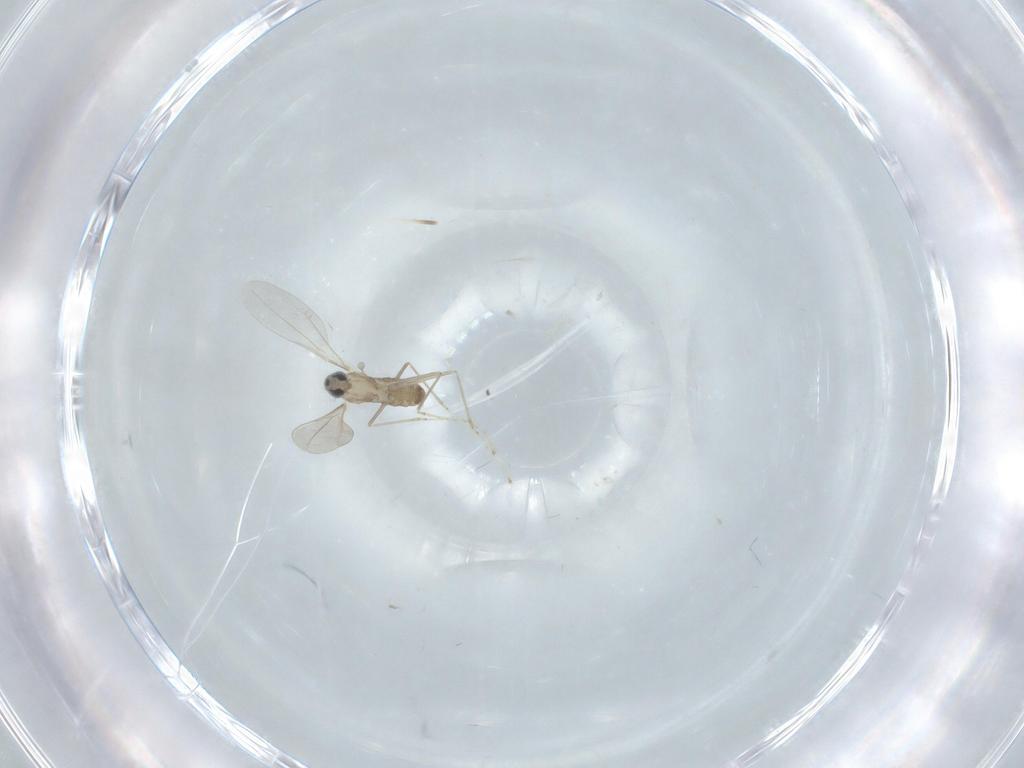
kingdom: Animalia
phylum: Arthropoda
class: Insecta
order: Diptera
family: Cecidomyiidae
